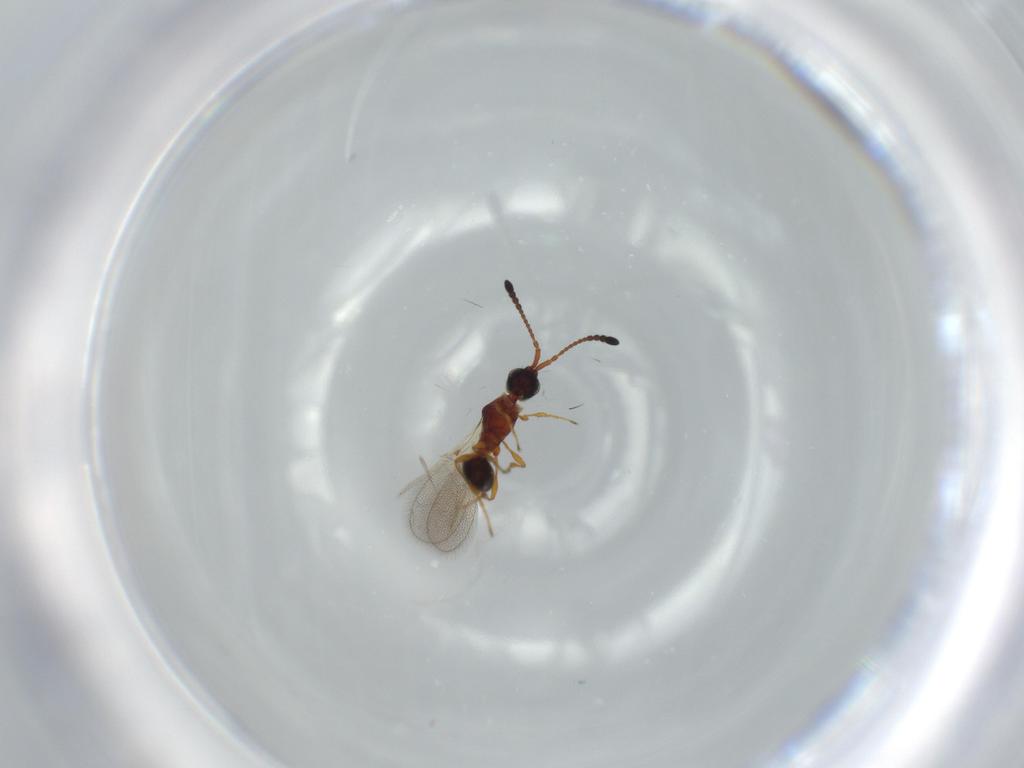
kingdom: Animalia
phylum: Arthropoda
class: Insecta
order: Hymenoptera
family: Diapriidae
